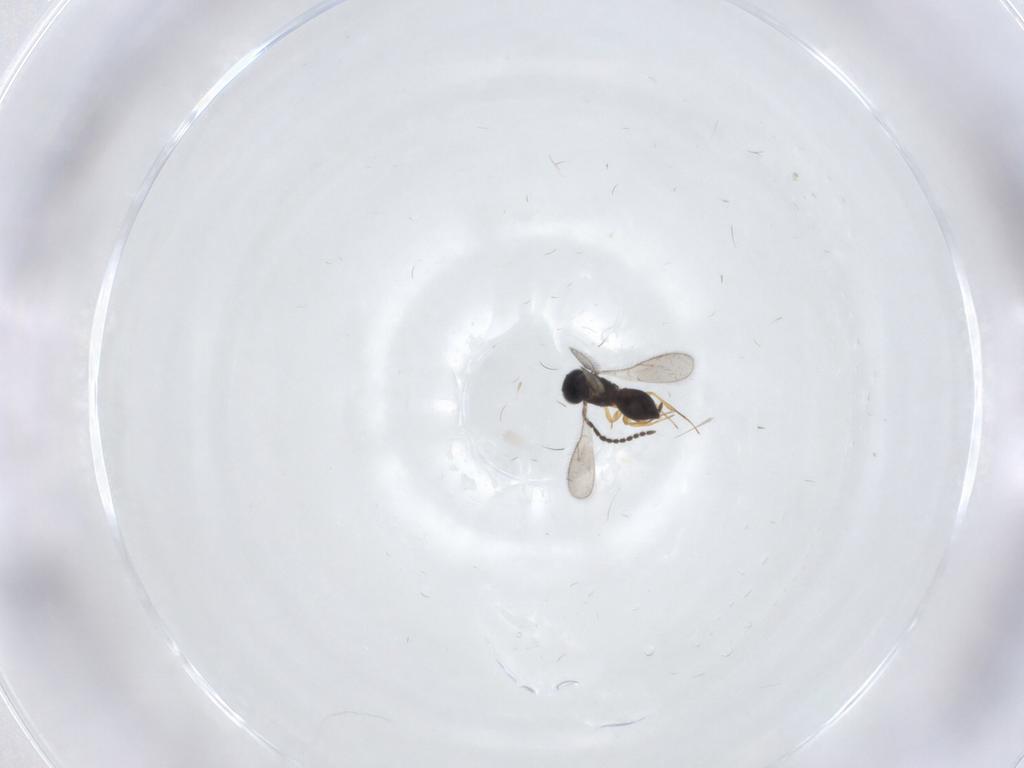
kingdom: Animalia
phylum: Arthropoda
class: Insecta
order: Hymenoptera
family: Scelionidae
